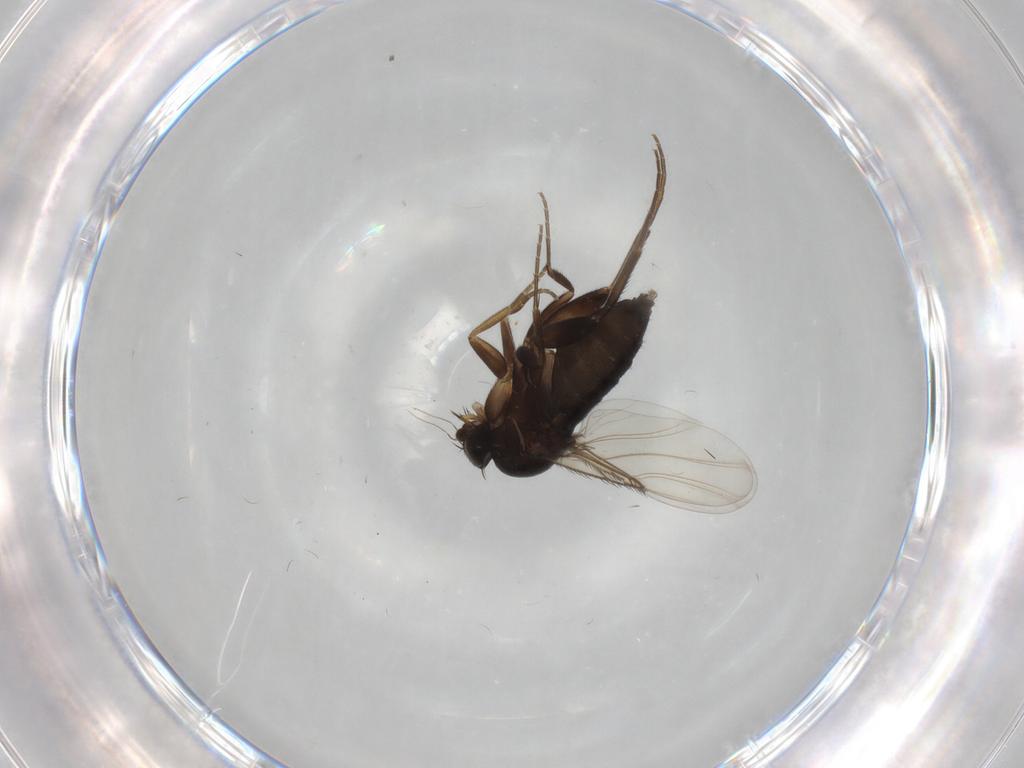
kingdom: Animalia
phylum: Arthropoda
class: Insecta
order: Diptera
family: Phoridae
